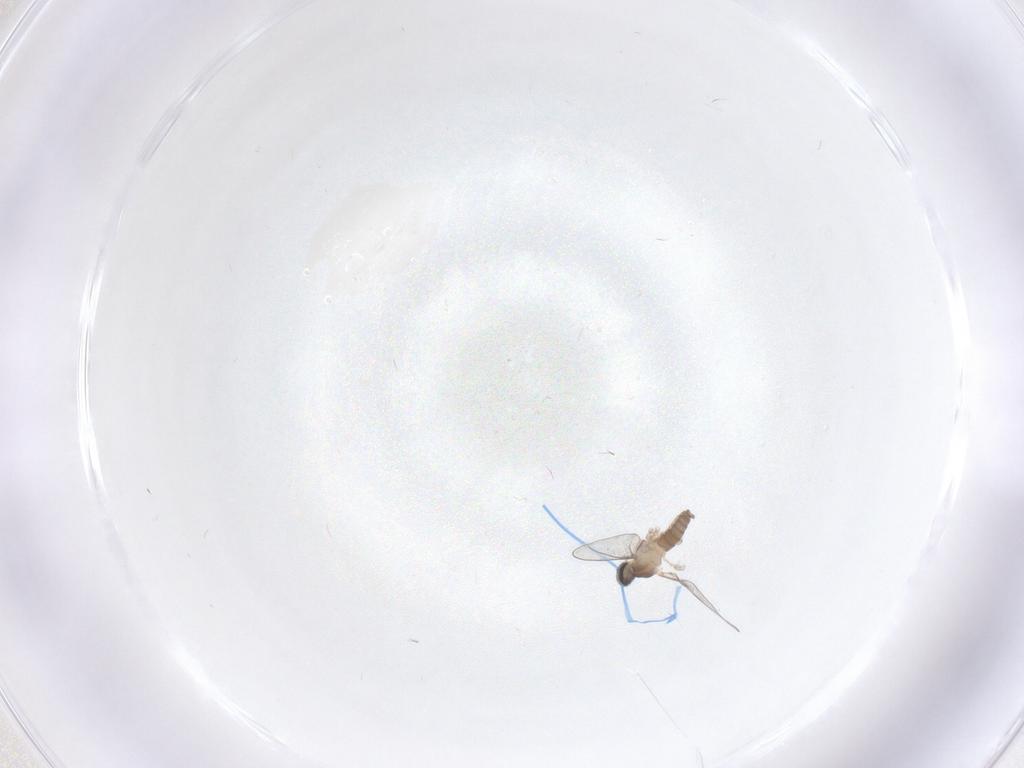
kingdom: Animalia
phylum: Arthropoda
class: Insecta
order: Diptera
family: Cecidomyiidae
